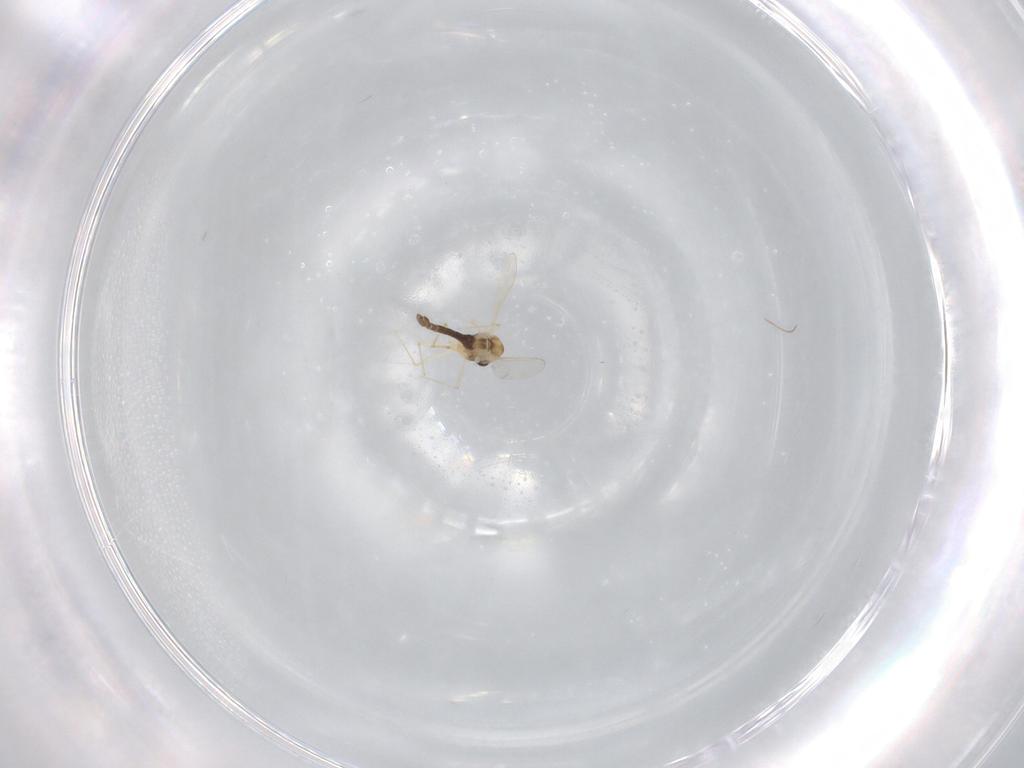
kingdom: Animalia
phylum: Arthropoda
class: Insecta
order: Diptera
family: Chironomidae
